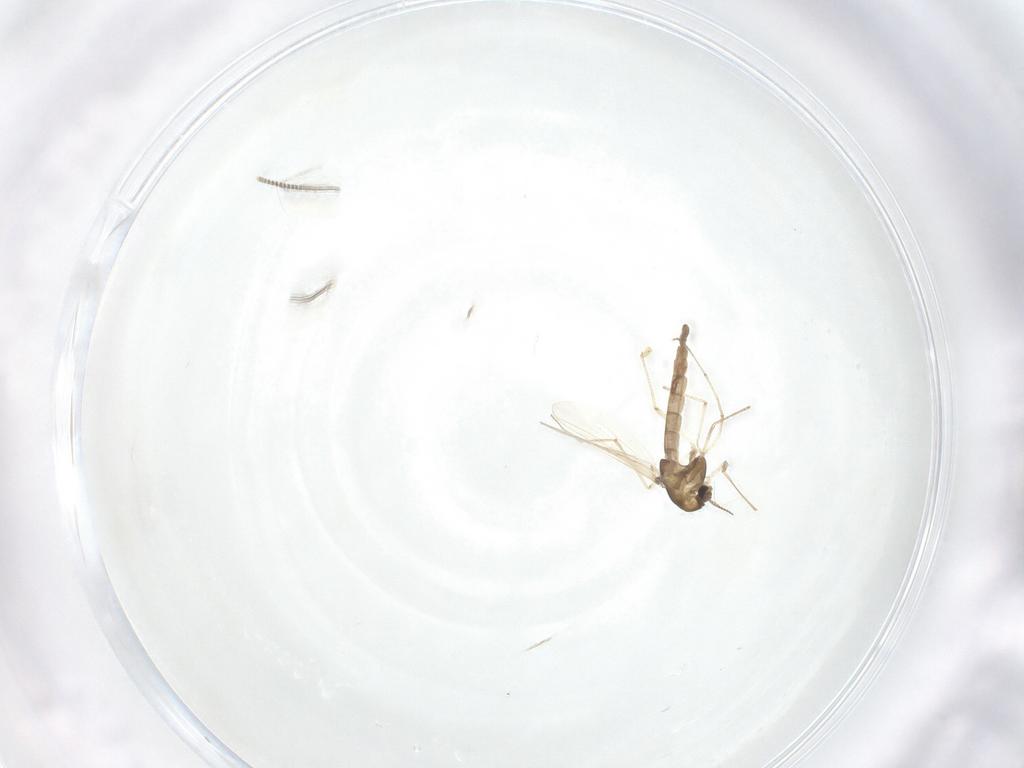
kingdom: Animalia
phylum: Arthropoda
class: Insecta
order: Diptera
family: Chironomidae
